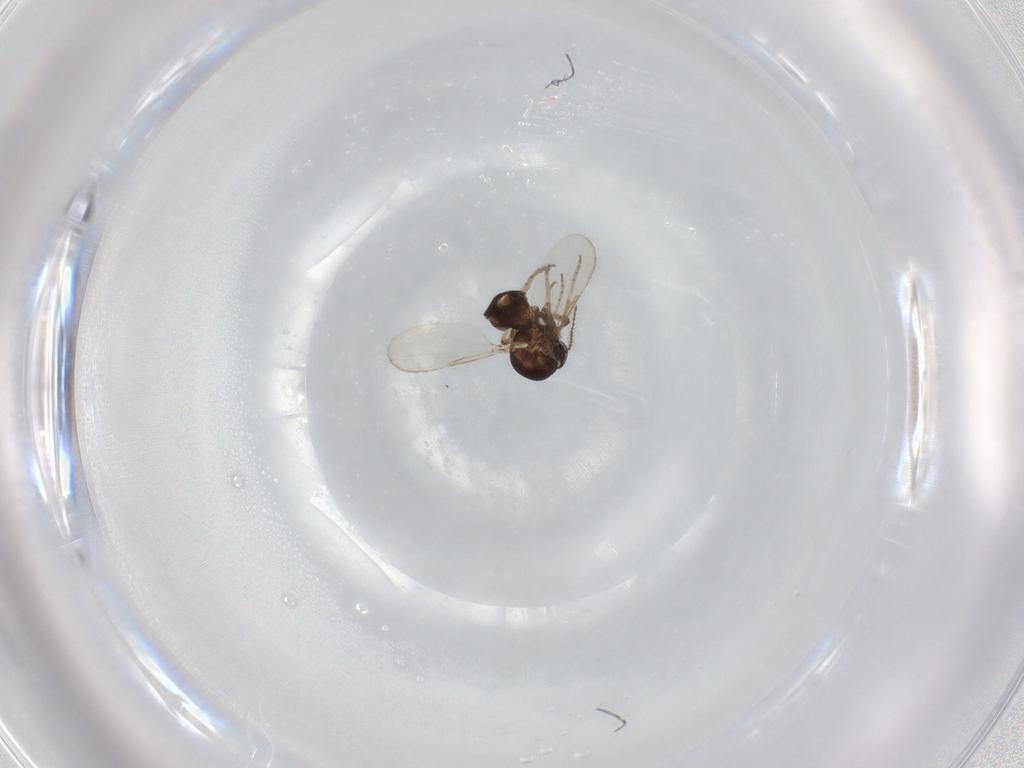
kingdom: Animalia
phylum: Arthropoda
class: Insecta
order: Diptera
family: Ceratopogonidae
